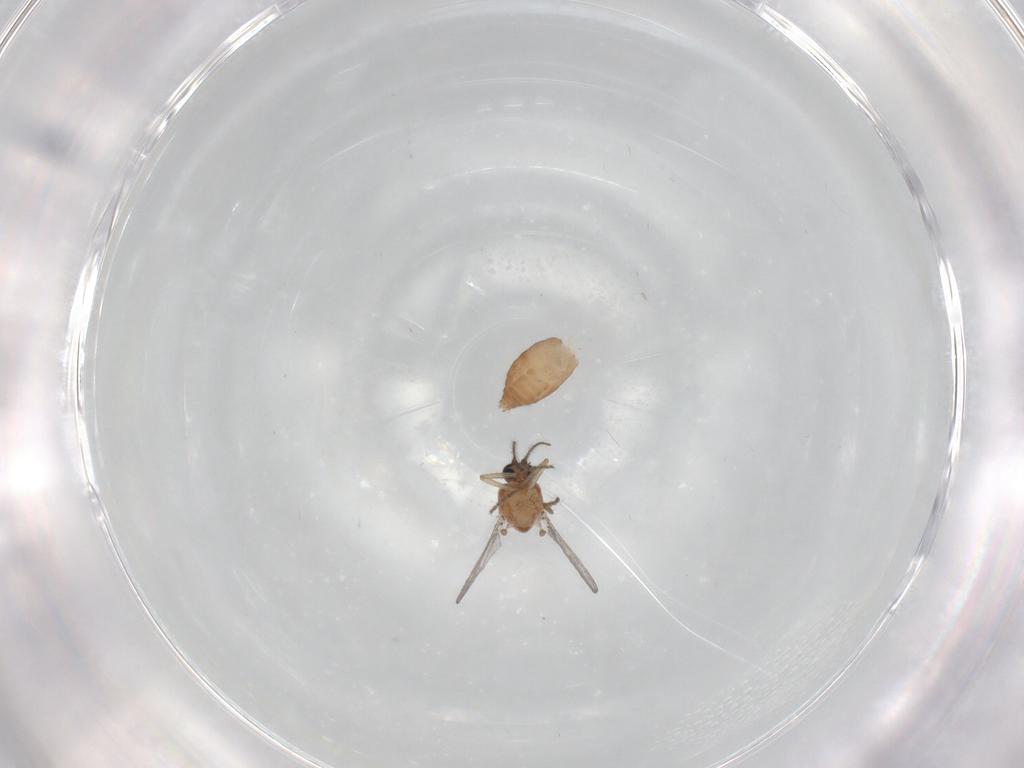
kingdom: Animalia
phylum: Arthropoda
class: Insecta
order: Diptera
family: Ceratopogonidae
